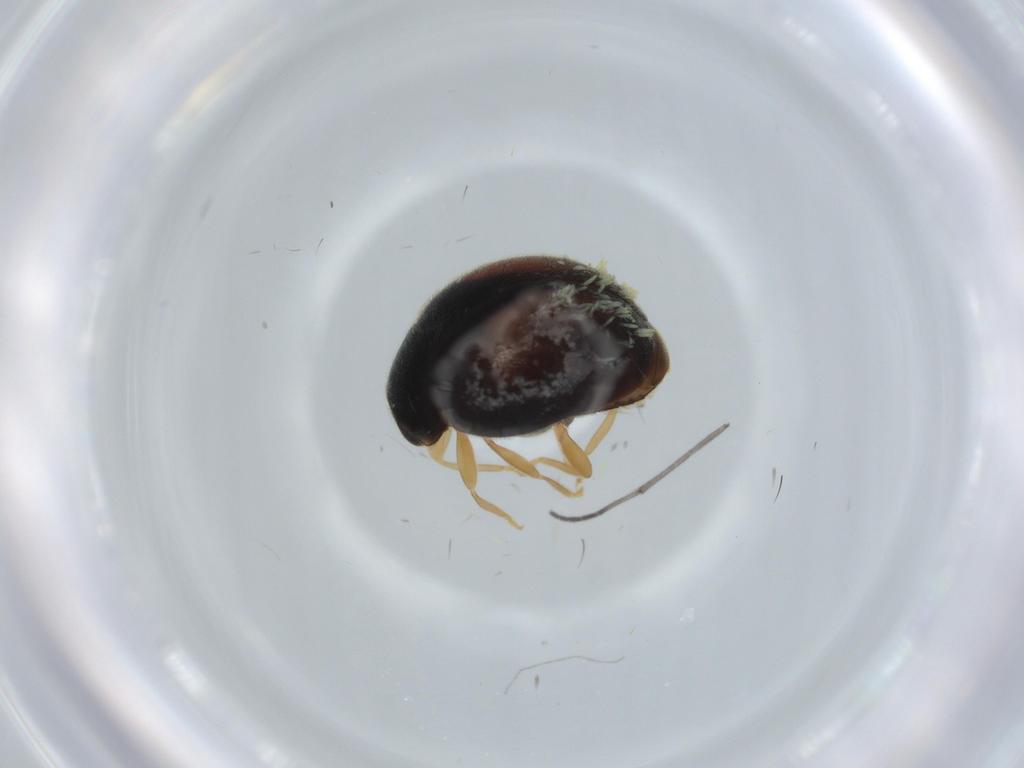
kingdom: Animalia
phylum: Arthropoda
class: Insecta
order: Coleoptera
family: Coccinellidae
